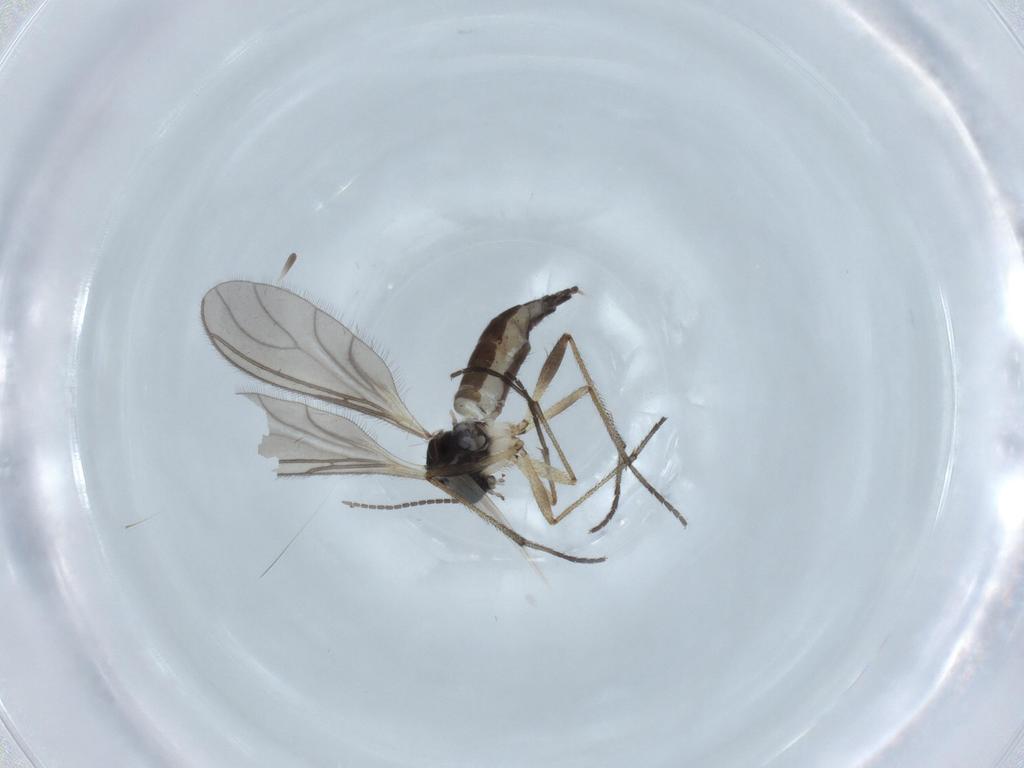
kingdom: Animalia
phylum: Arthropoda
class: Insecta
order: Diptera
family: Sciaridae
